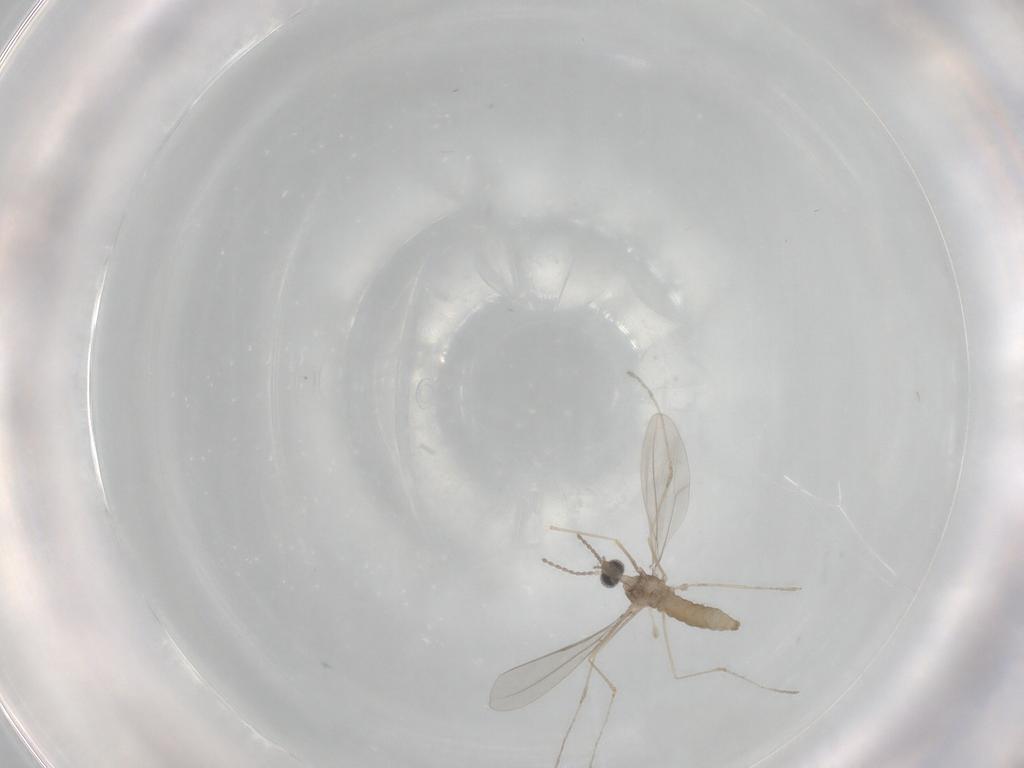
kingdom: Animalia
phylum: Arthropoda
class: Insecta
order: Diptera
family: Cecidomyiidae
